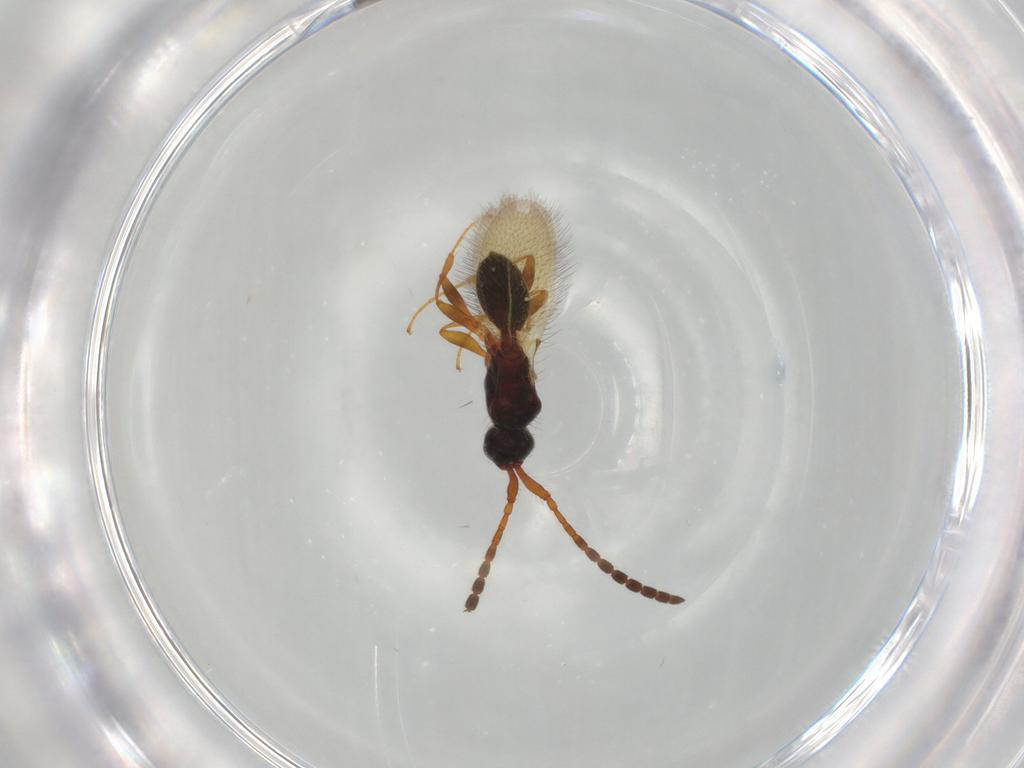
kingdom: Animalia
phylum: Arthropoda
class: Insecta
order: Hymenoptera
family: Diapriidae
